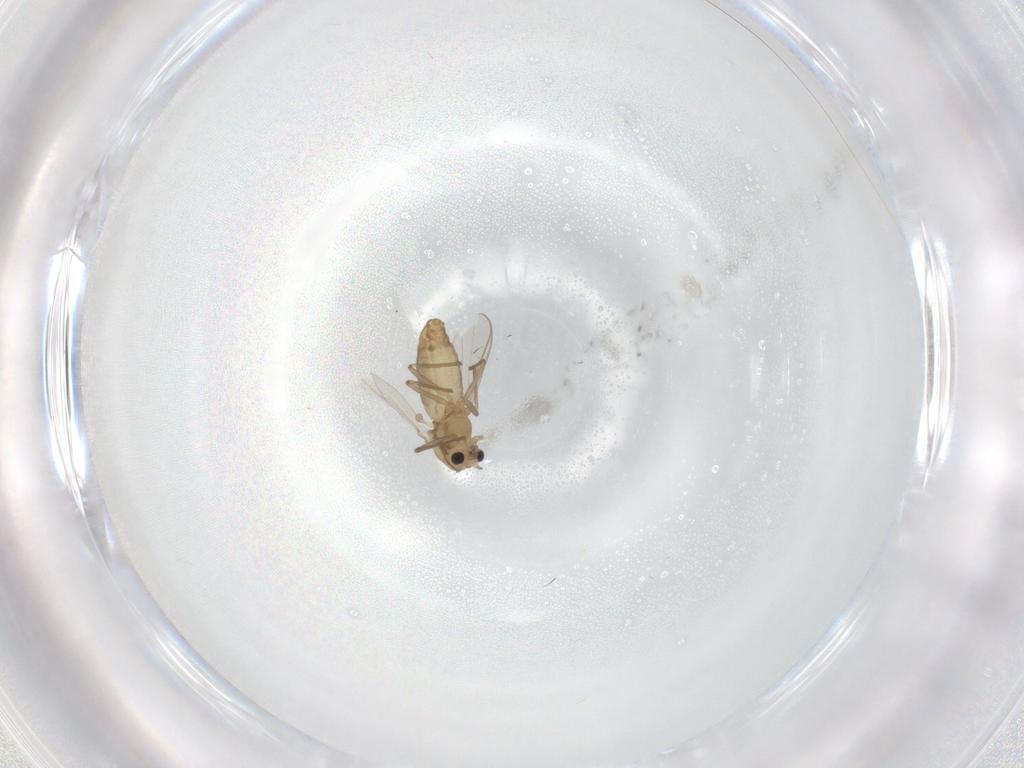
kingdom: Animalia
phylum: Arthropoda
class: Insecta
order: Diptera
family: Chironomidae
